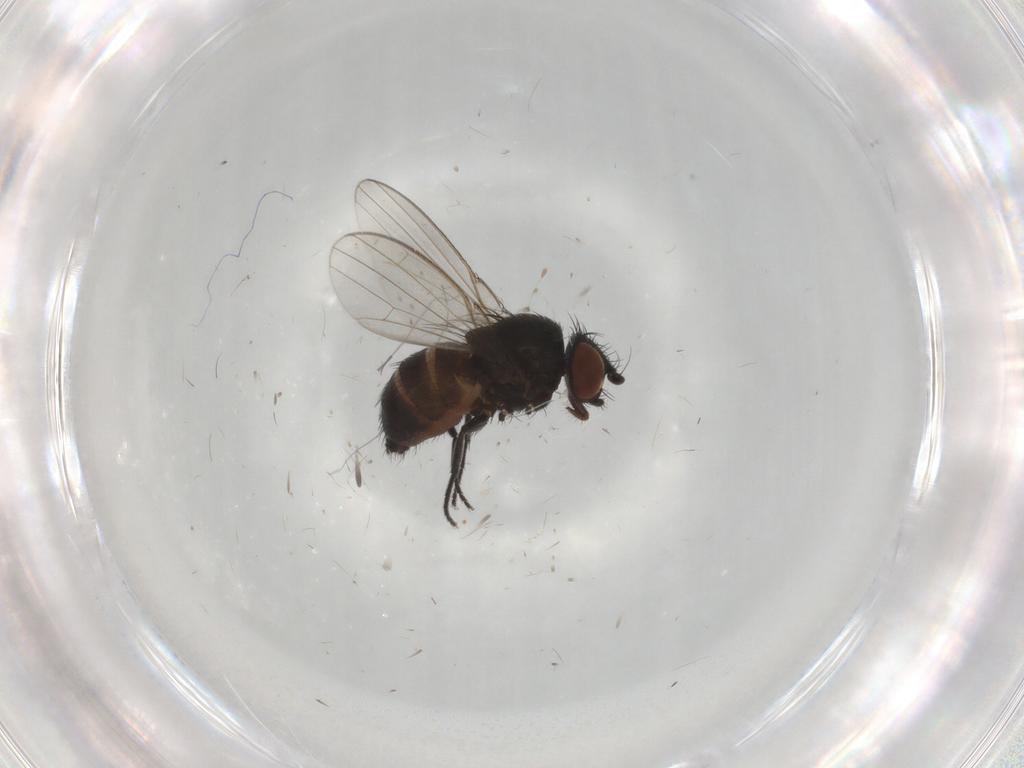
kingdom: Animalia
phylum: Arthropoda
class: Insecta
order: Diptera
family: Milichiidae
